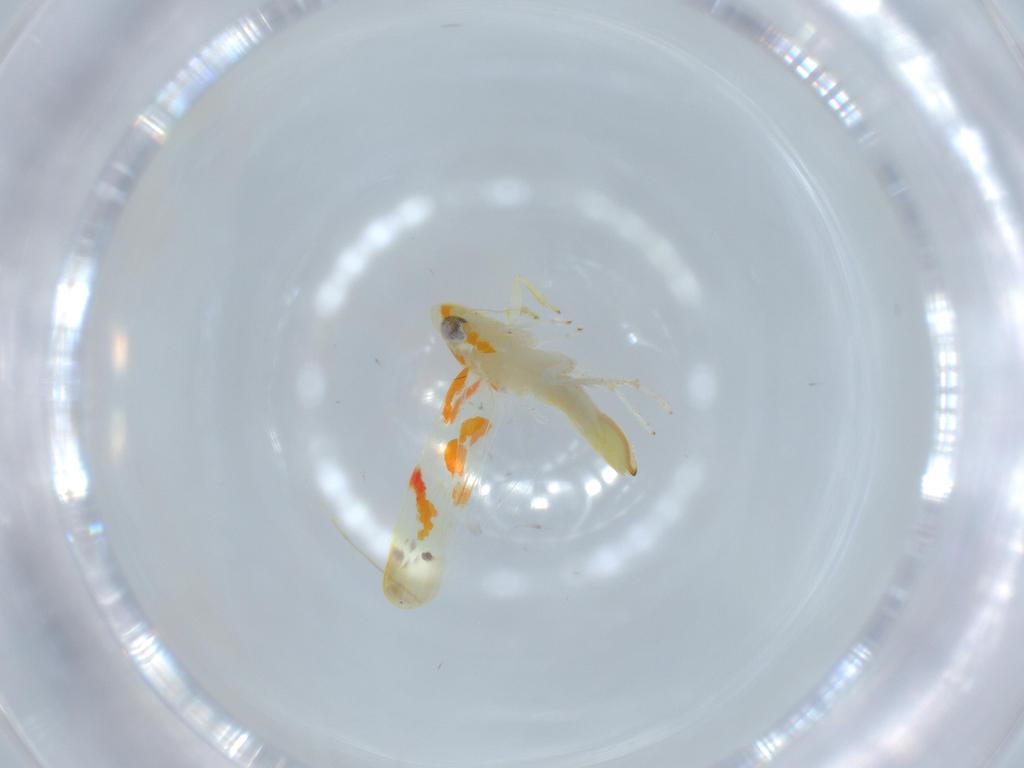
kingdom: Animalia
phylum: Arthropoda
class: Insecta
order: Hemiptera
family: Cicadellidae
